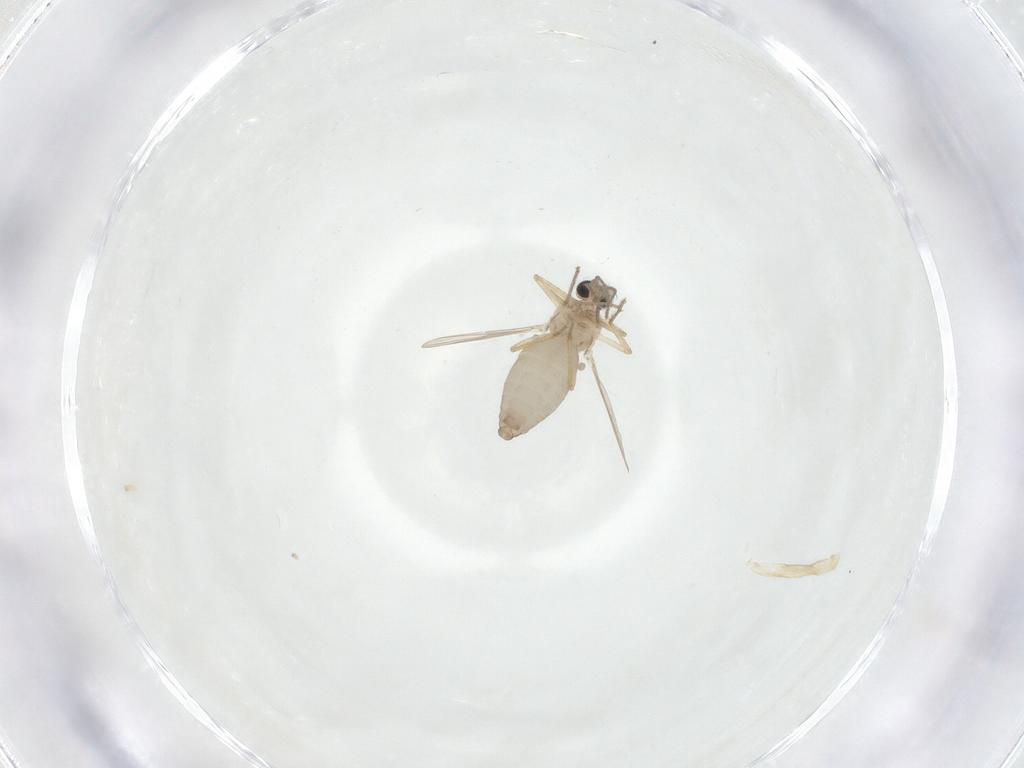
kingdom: Animalia
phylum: Arthropoda
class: Insecta
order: Diptera
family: Ceratopogonidae
